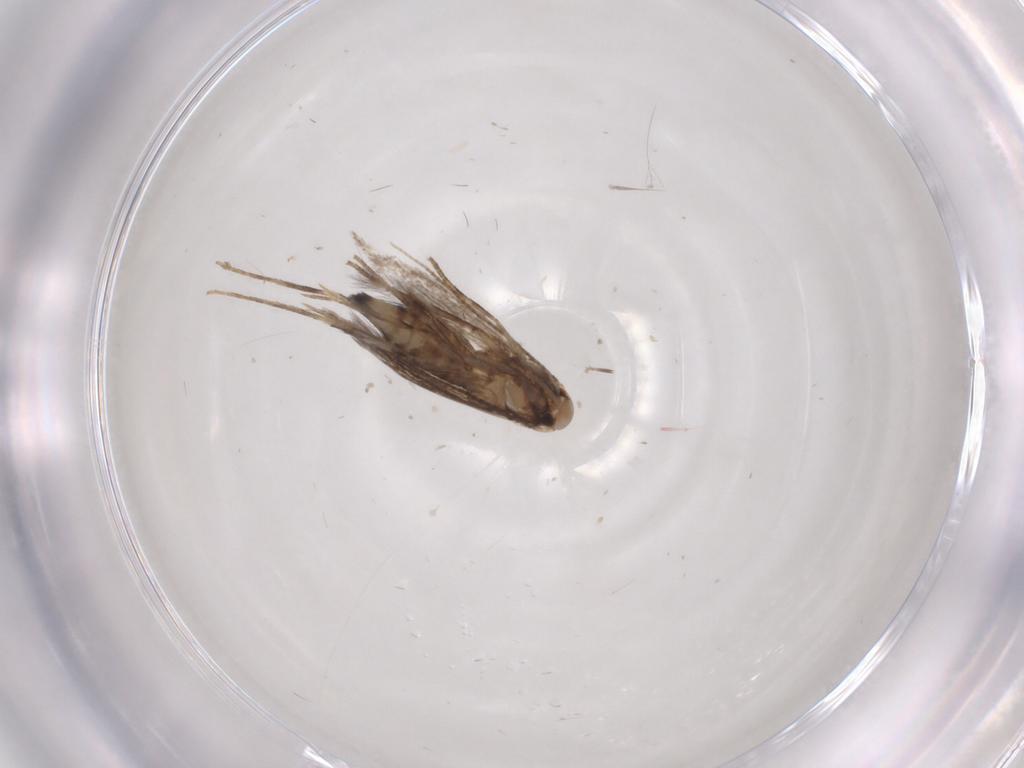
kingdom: Animalia
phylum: Arthropoda
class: Insecta
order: Lepidoptera
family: Gracillariidae
